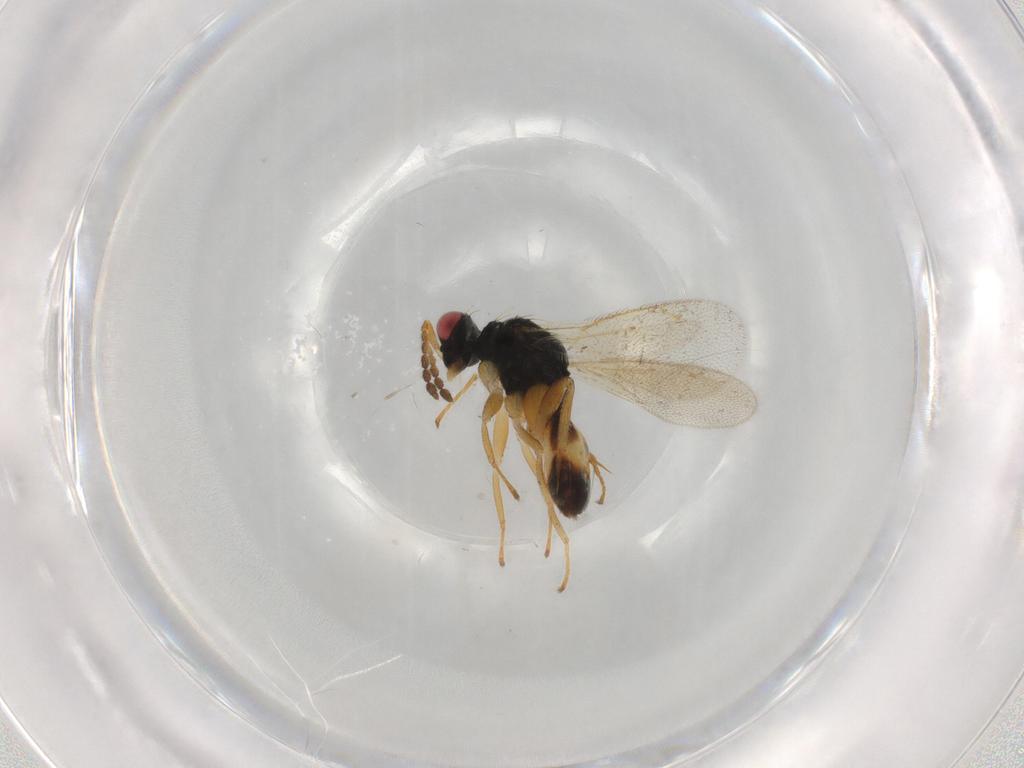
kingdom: Animalia
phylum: Arthropoda
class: Insecta
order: Hymenoptera
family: Eulophidae
